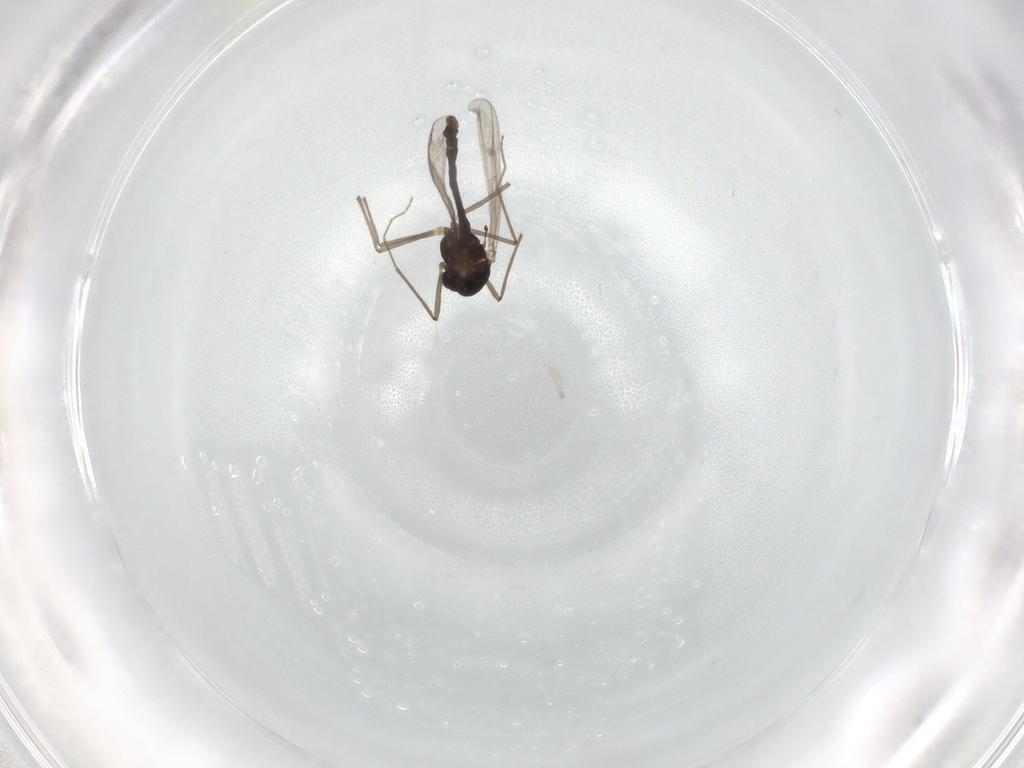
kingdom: Animalia
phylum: Arthropoda
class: Insecta
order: Diptera
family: Chironomidae
